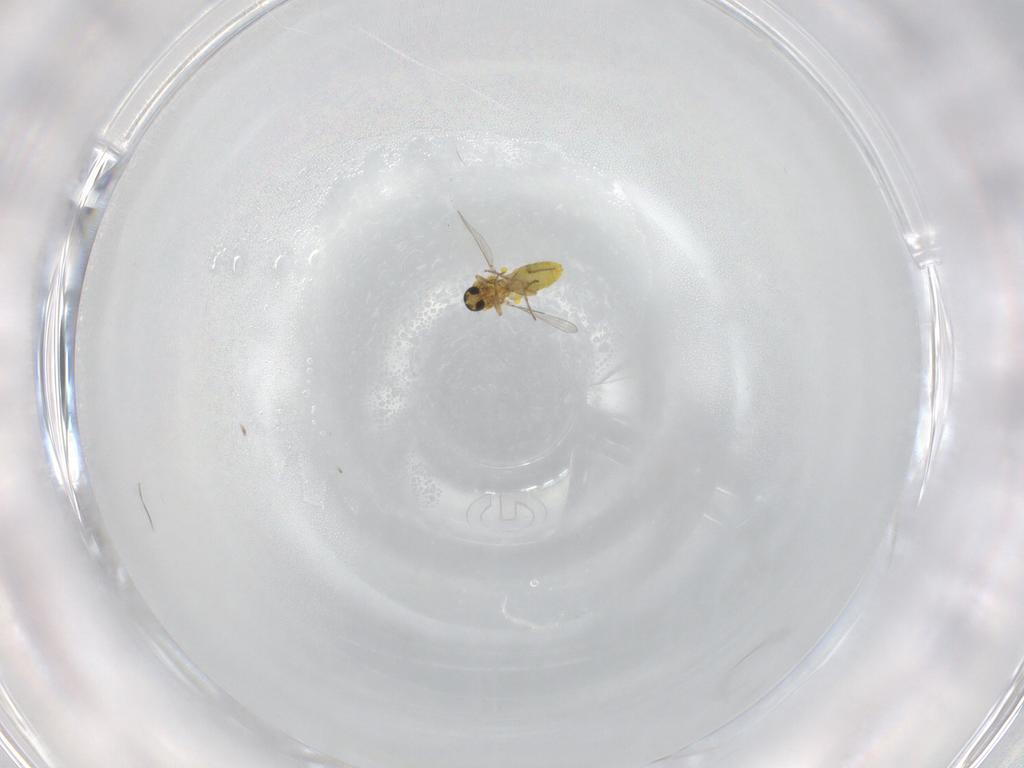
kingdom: Animalia
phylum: Arthropoda
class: Insecta
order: Diptera
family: Ceratopogonidae
